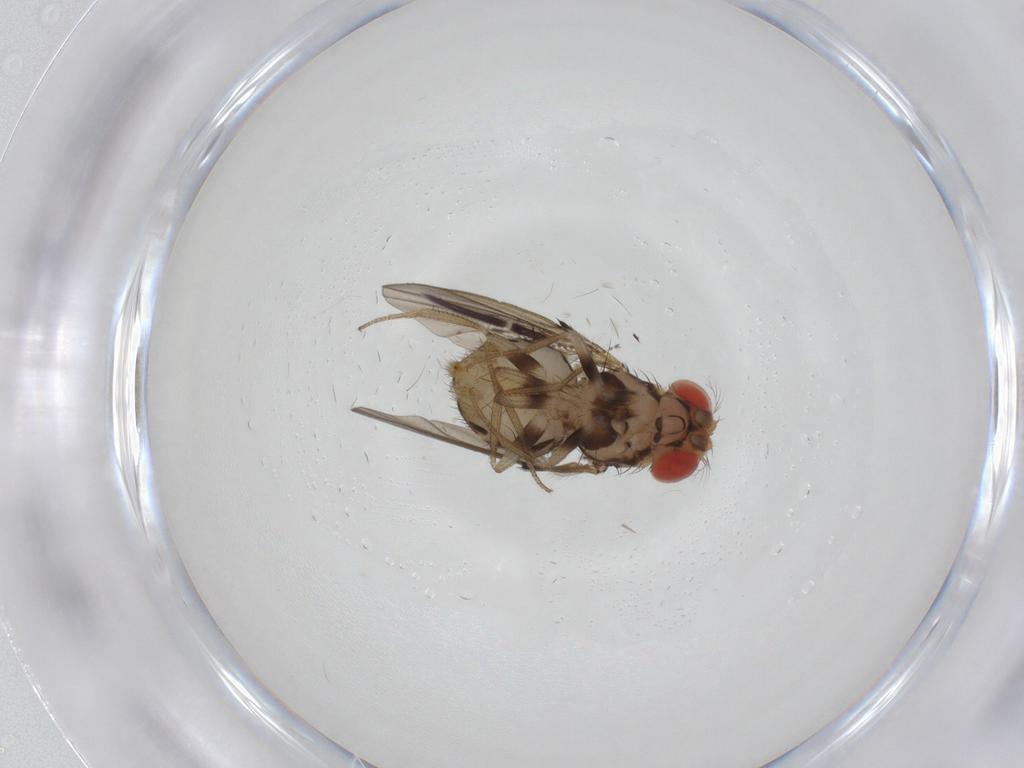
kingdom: Animalia
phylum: Arthropoda
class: Insecta
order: Diptera
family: Drosophilidae
